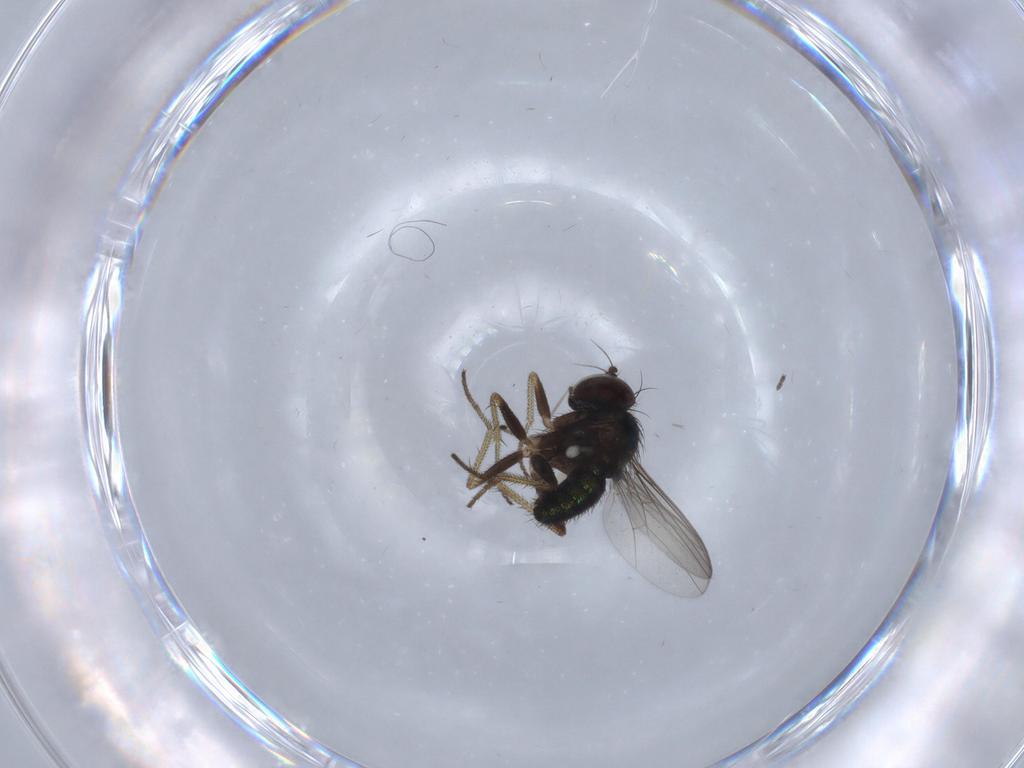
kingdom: Animalia
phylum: Arthropoda
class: Insecta
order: Diptera
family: Dolichopodidae
